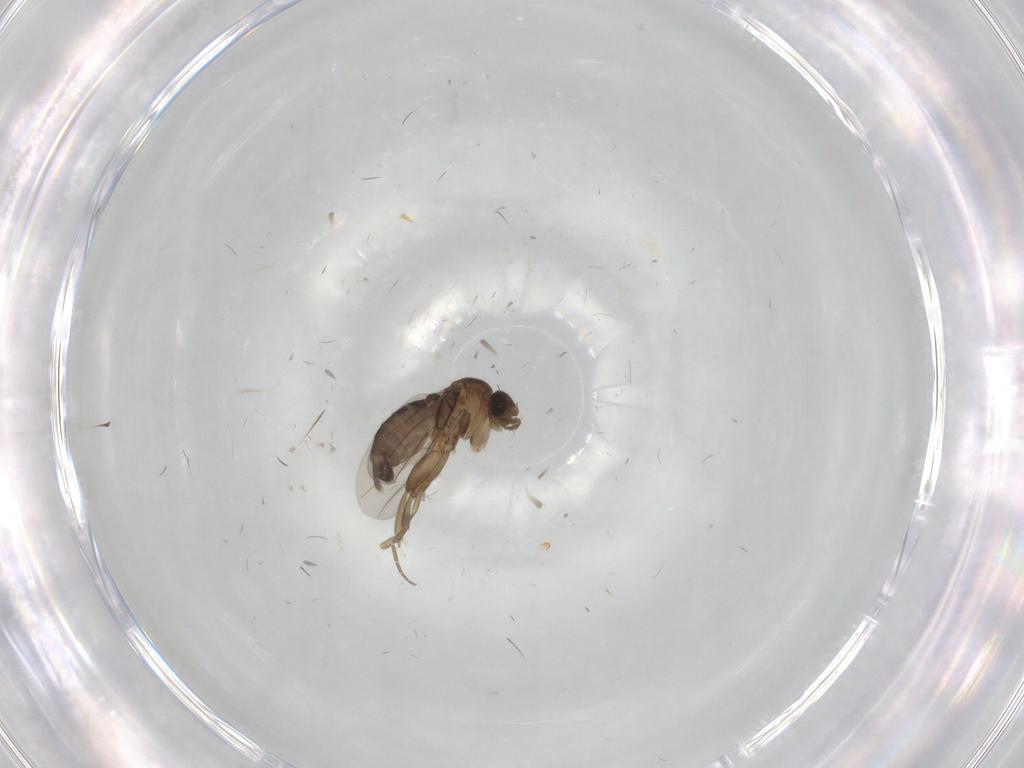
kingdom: Animalia
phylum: Arthropoda
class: Insecta
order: Diptera
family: Phoridae
